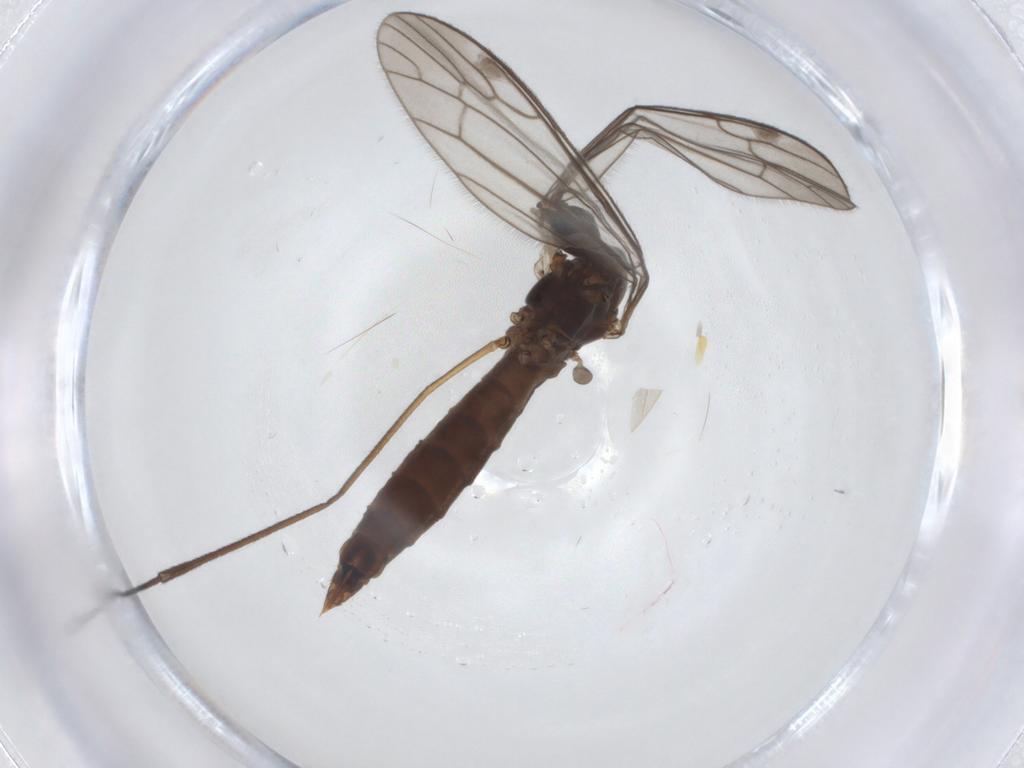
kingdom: Animalia
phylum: Arthropoda
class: Insecta
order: Diptera
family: Limoniidae
